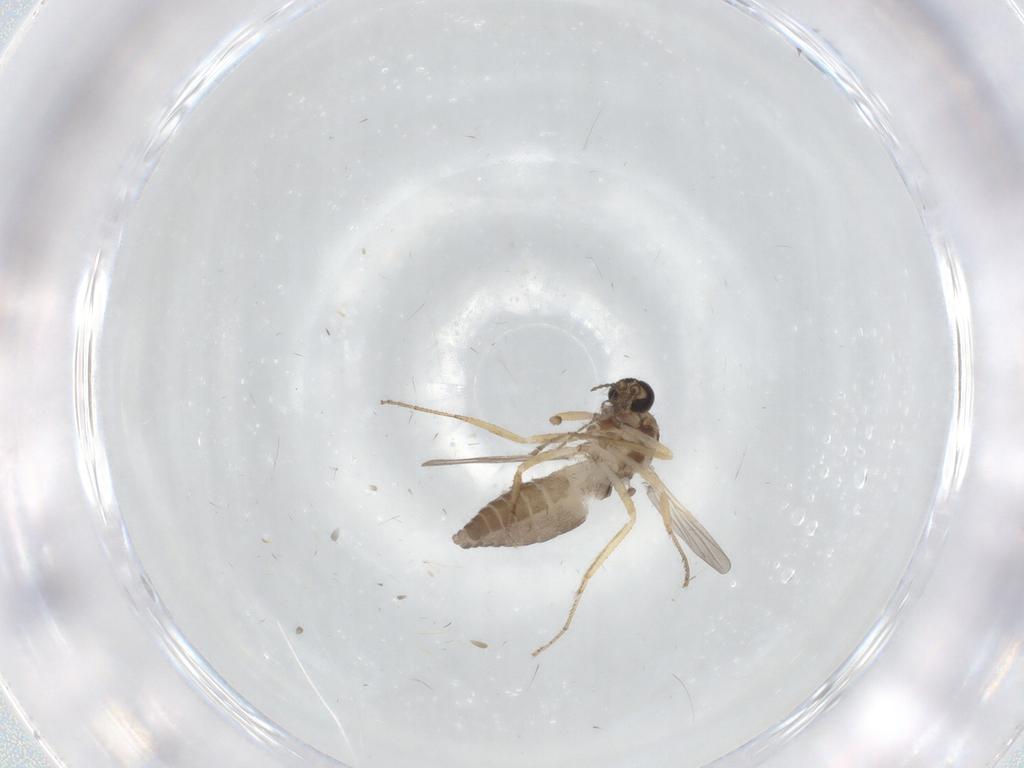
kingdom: Animalia
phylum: Arthropoda
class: Insecta
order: Diptera
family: Ceratopogonidae
